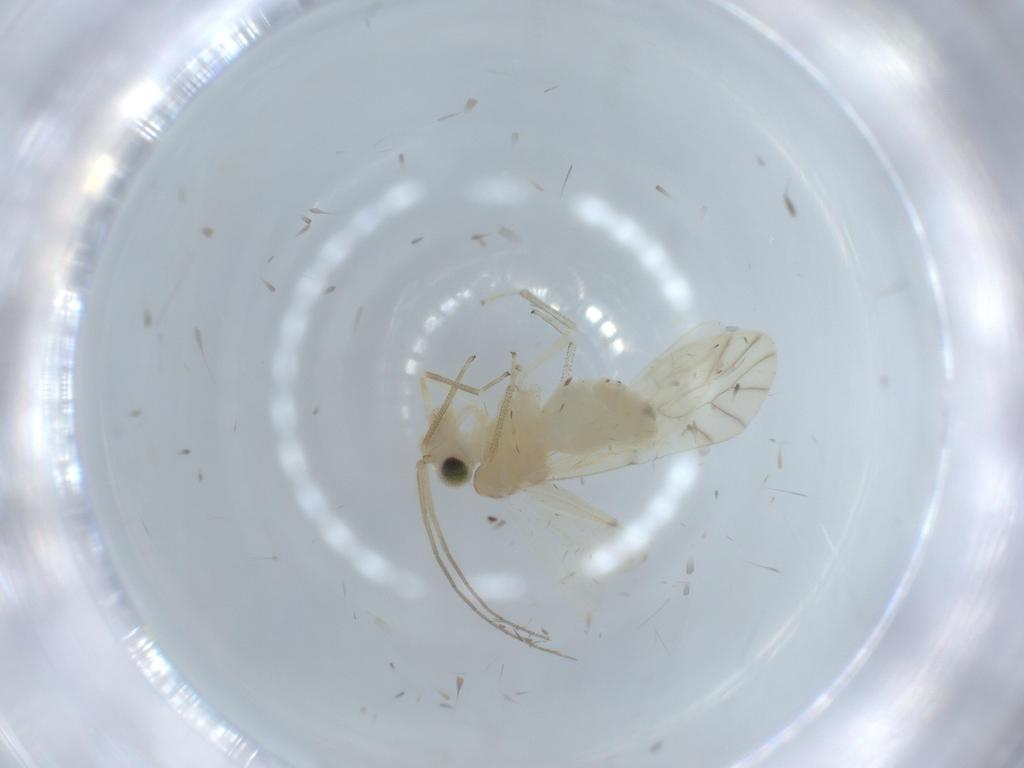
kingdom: Animalia
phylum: Arthropoda
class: Insecta
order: Psocodea
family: Caeciliusidae
